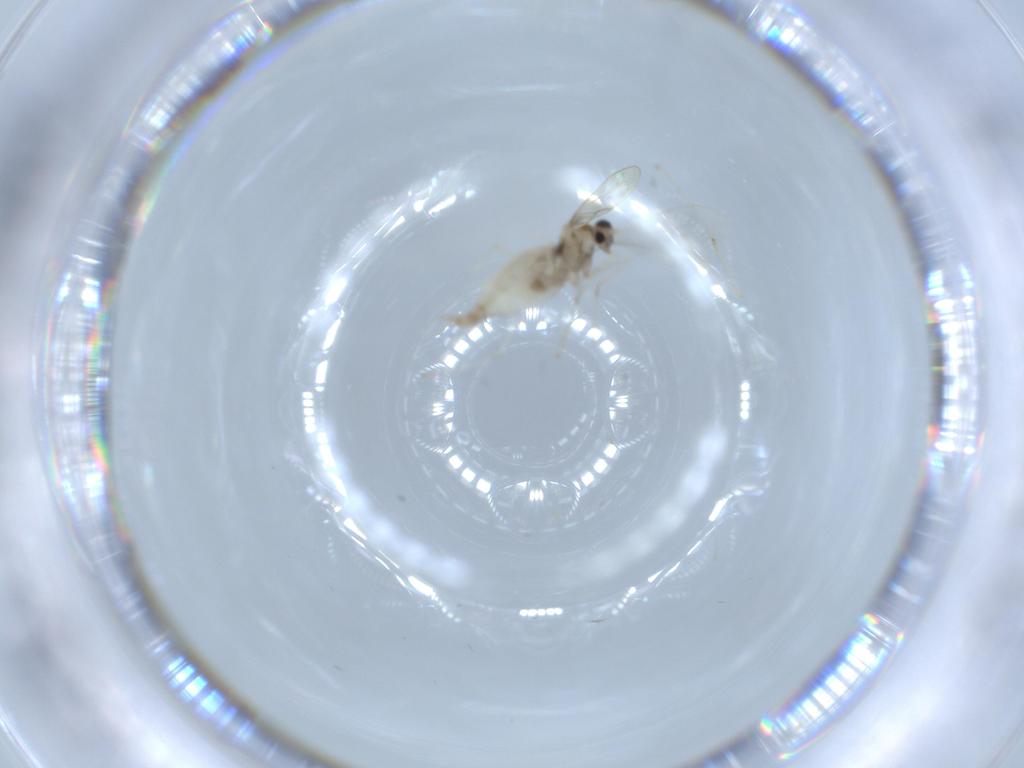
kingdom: Animalia
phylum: Arthropoda
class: Insecta
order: Diptera
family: Cecidomyiidae
